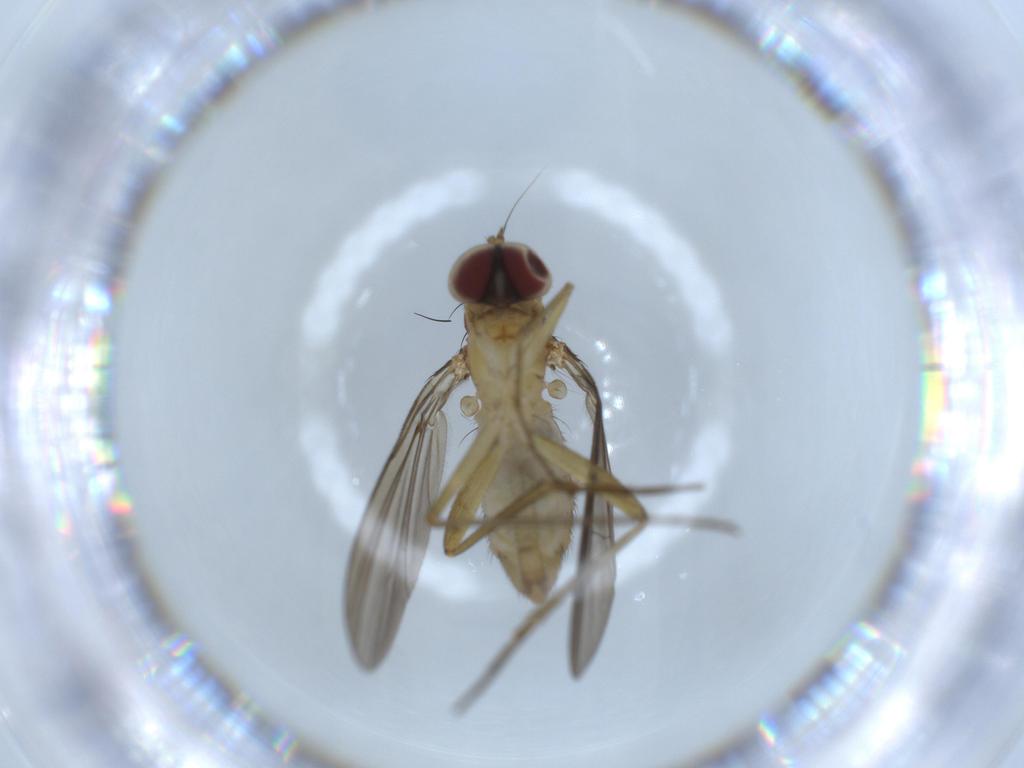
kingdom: Animalia
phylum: Arthropoda
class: Insecta
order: Diptera
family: Dolichopodidae
